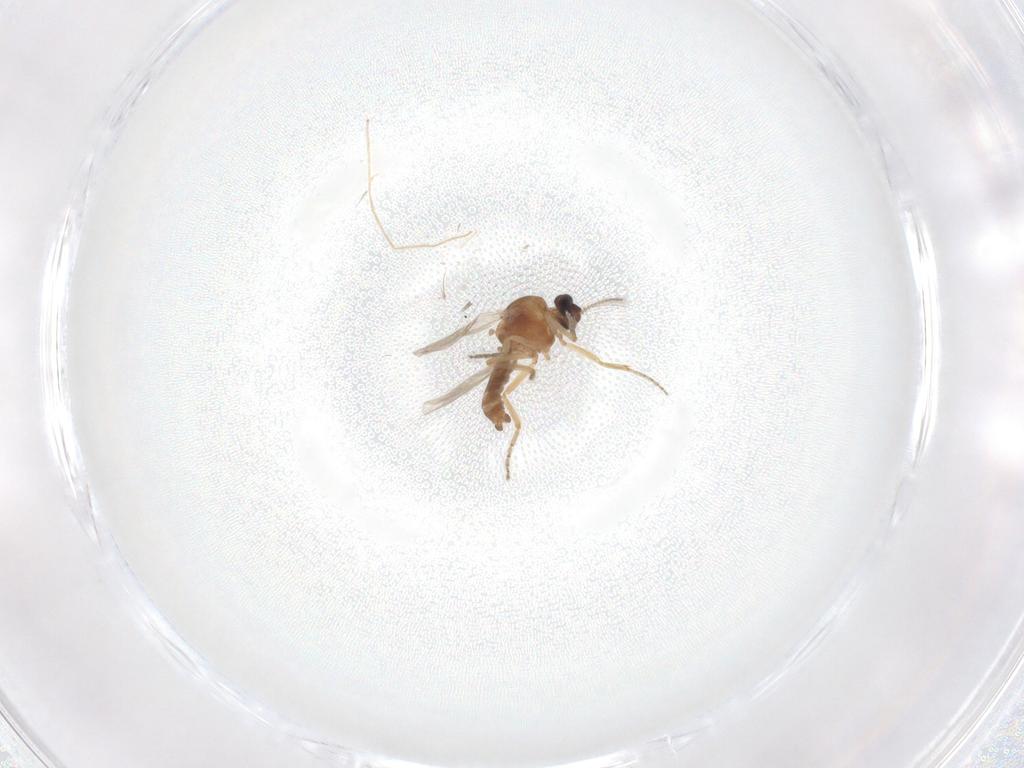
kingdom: Animalia
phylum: Arthropoda
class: Insecta
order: Diptera
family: Ceratopogonidae
